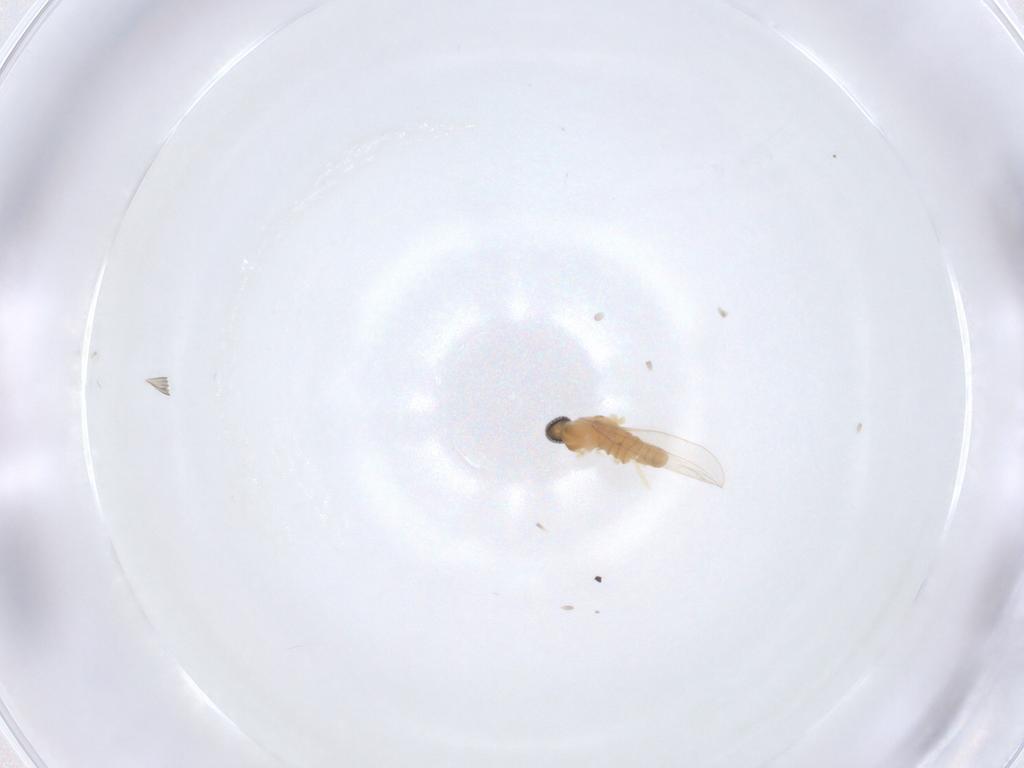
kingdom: Animalia
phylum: Arthropoda
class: Insecta
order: Diptera
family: Cecidomyiidae
